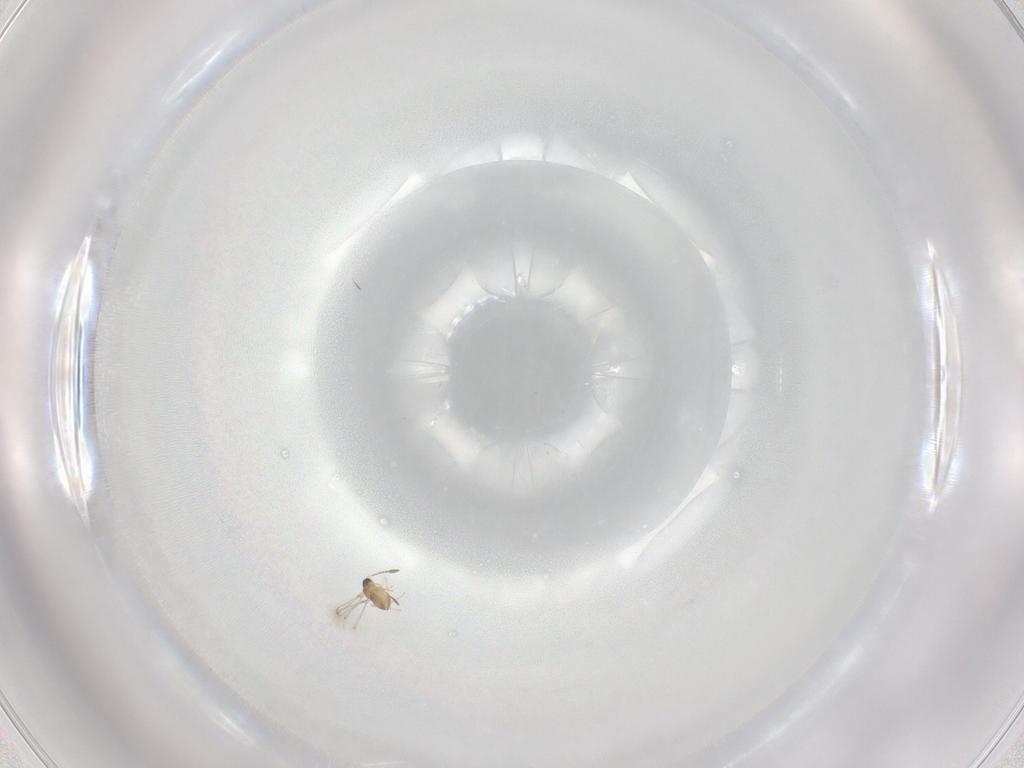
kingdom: Animalia
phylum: Arthropoda
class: Insecta
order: Hymenoptera
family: Mymaridae
